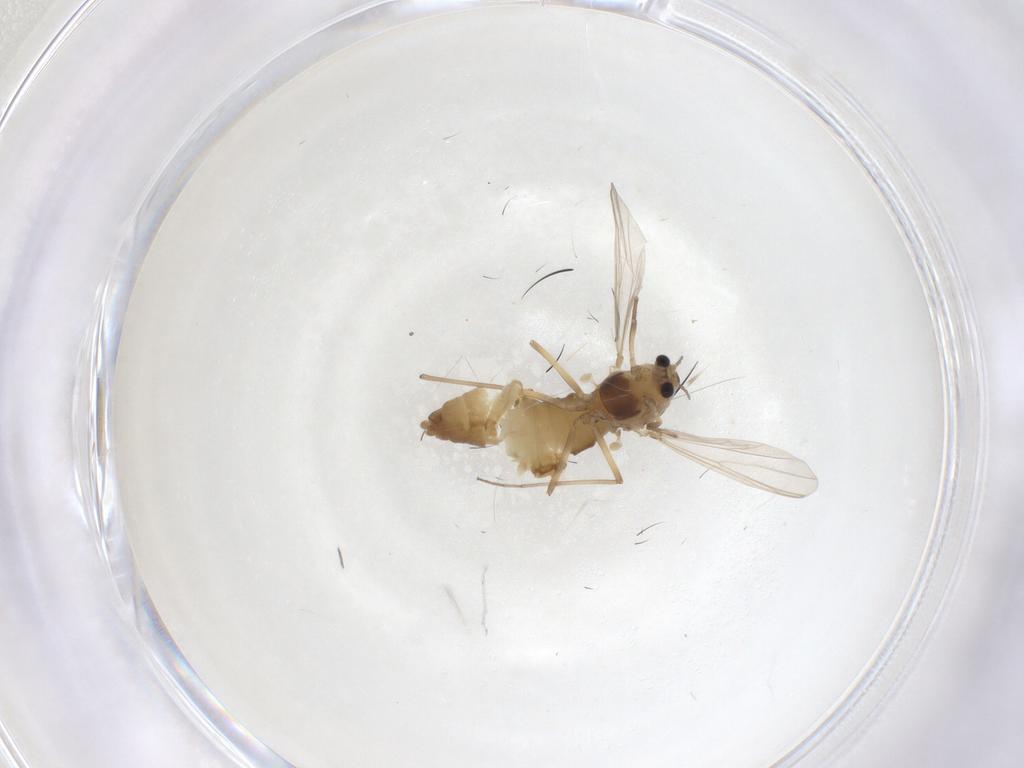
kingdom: Animalia
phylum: Arthropoda
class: Insecta
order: Diptera
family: Chironomidae
